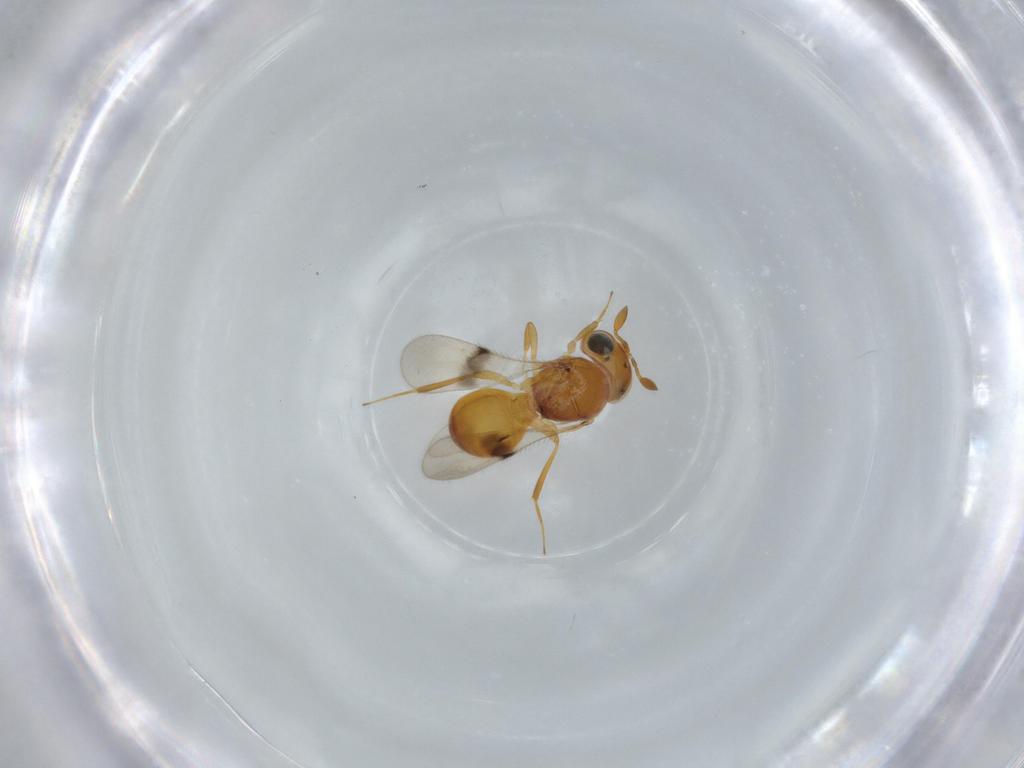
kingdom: Animalia
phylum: Arthropoda
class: Insecta
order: Hymenoptera
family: Scelionidae
